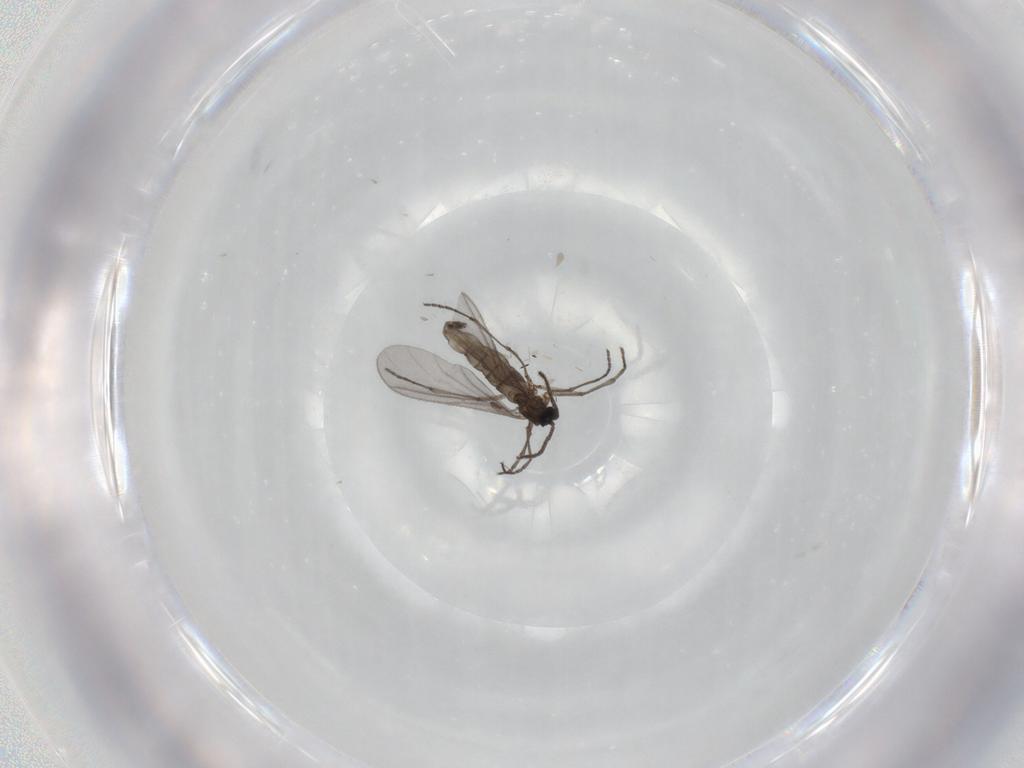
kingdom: Animalia
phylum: Arthropoda
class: Insecta
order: Diptera
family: Sciaridae
